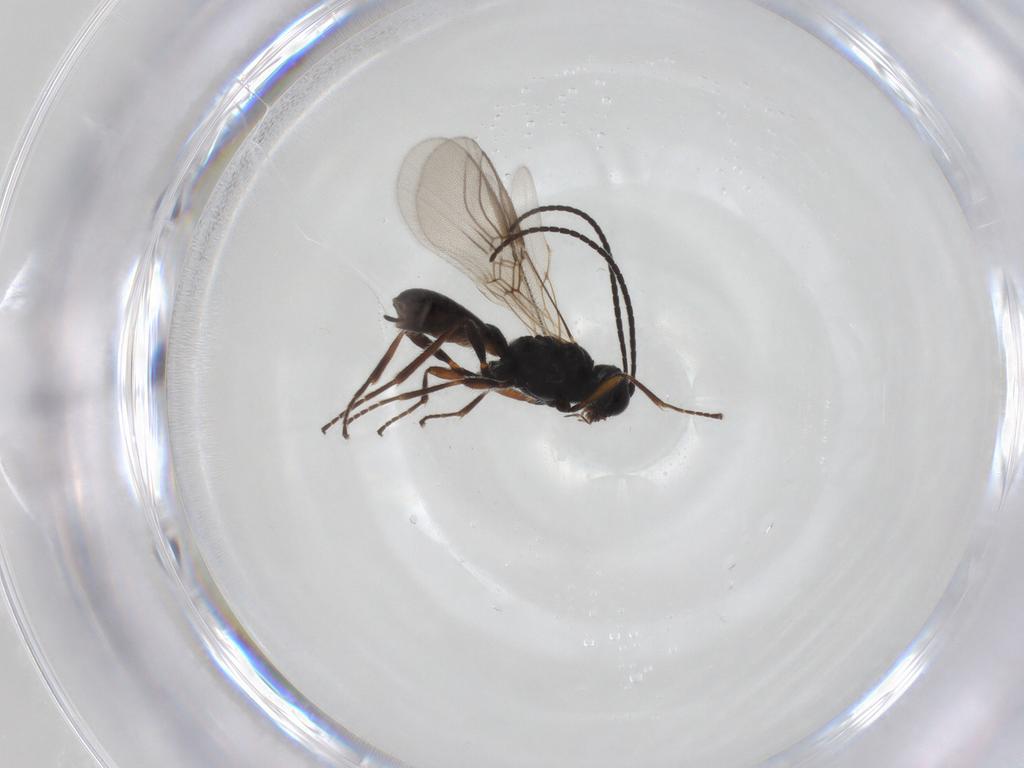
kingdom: Animalia
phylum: Arthropoda
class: Insecta
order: Hymenoptera
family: Braconidae
